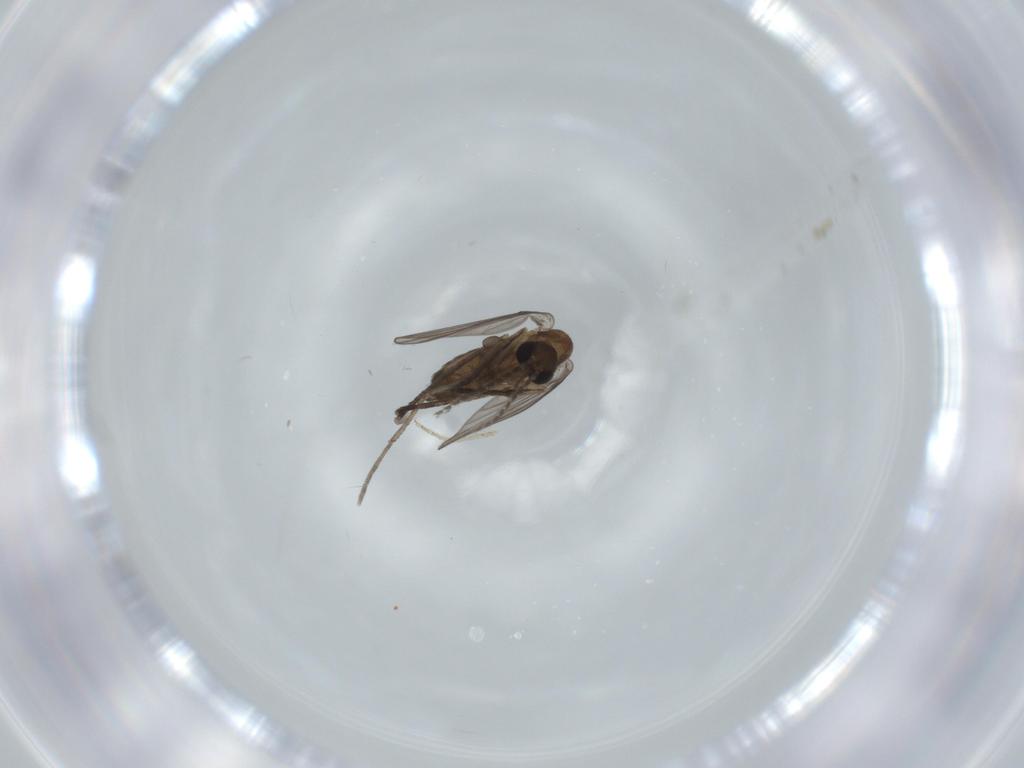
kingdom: Animalia
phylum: Arthropoda
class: Insecta
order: Diptera
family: Ceratopogonidae
